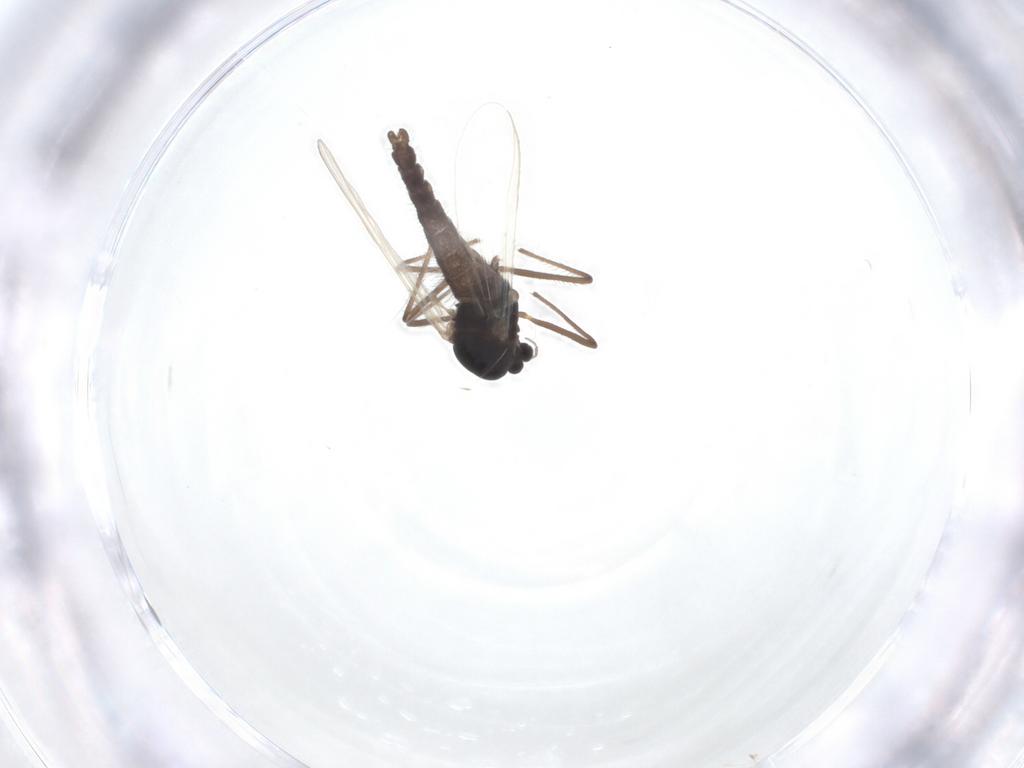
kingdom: Animalia
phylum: Arthropoda
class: Insecta
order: Diptera
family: Chironomidae
